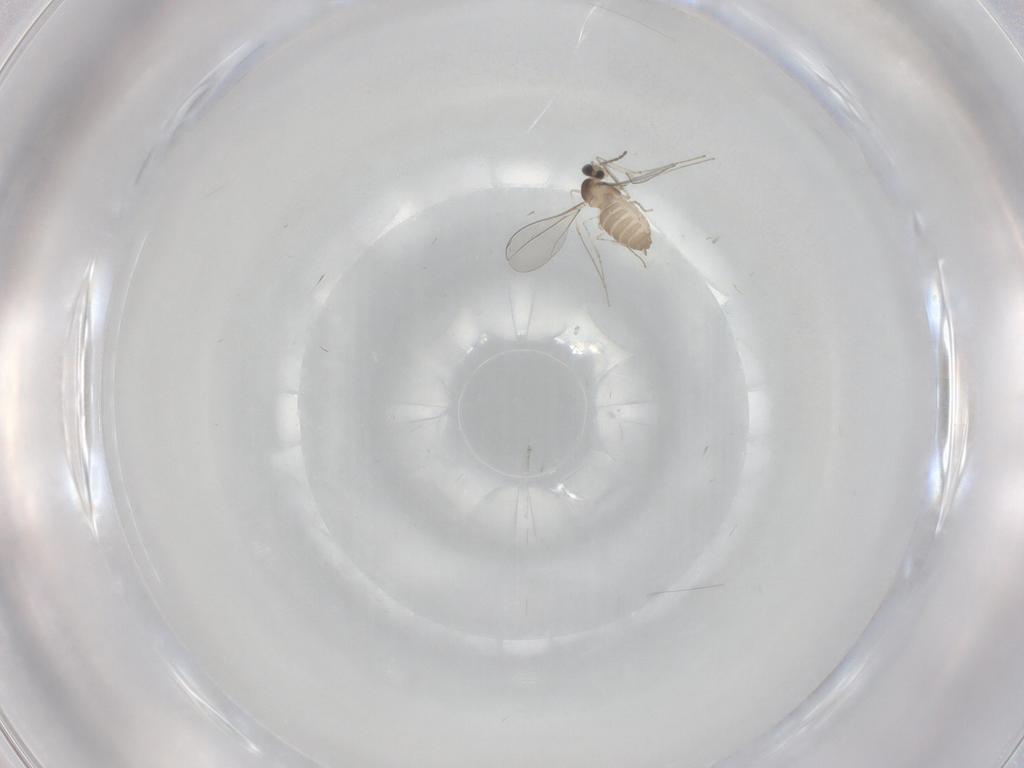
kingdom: Animalia
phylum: Arthropoda
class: Insecta
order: Diptera
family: Cecidomyiidae
